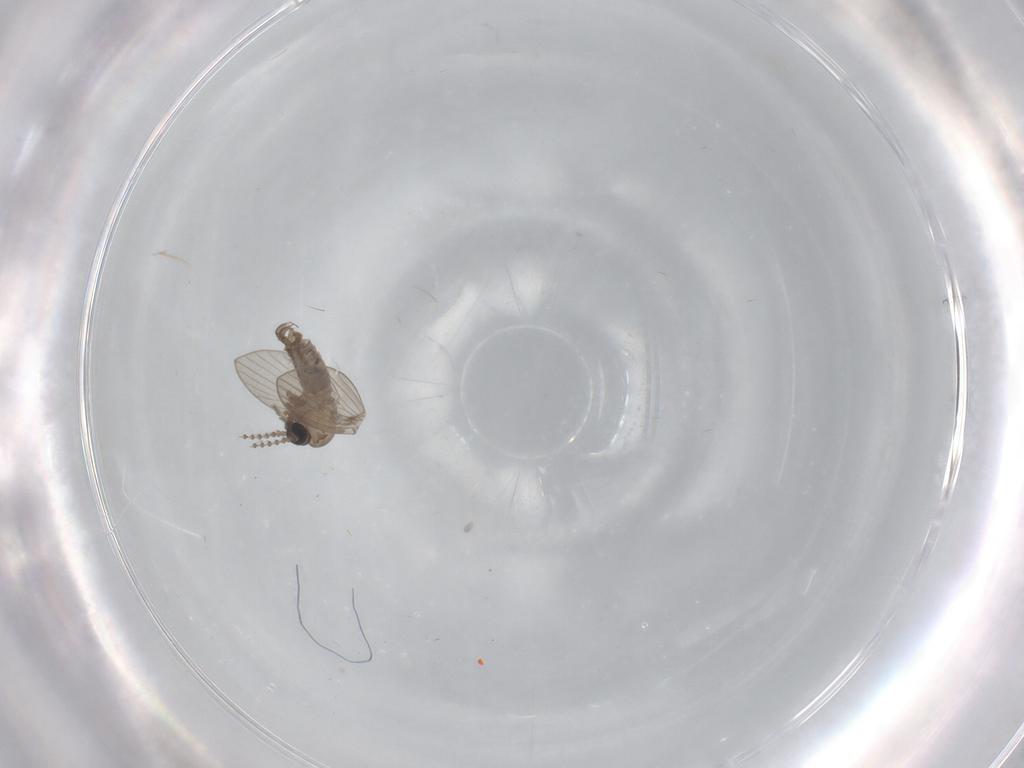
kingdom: Animalia
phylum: Arthropoda
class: Insecta
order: Diptera
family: Psychodidae
